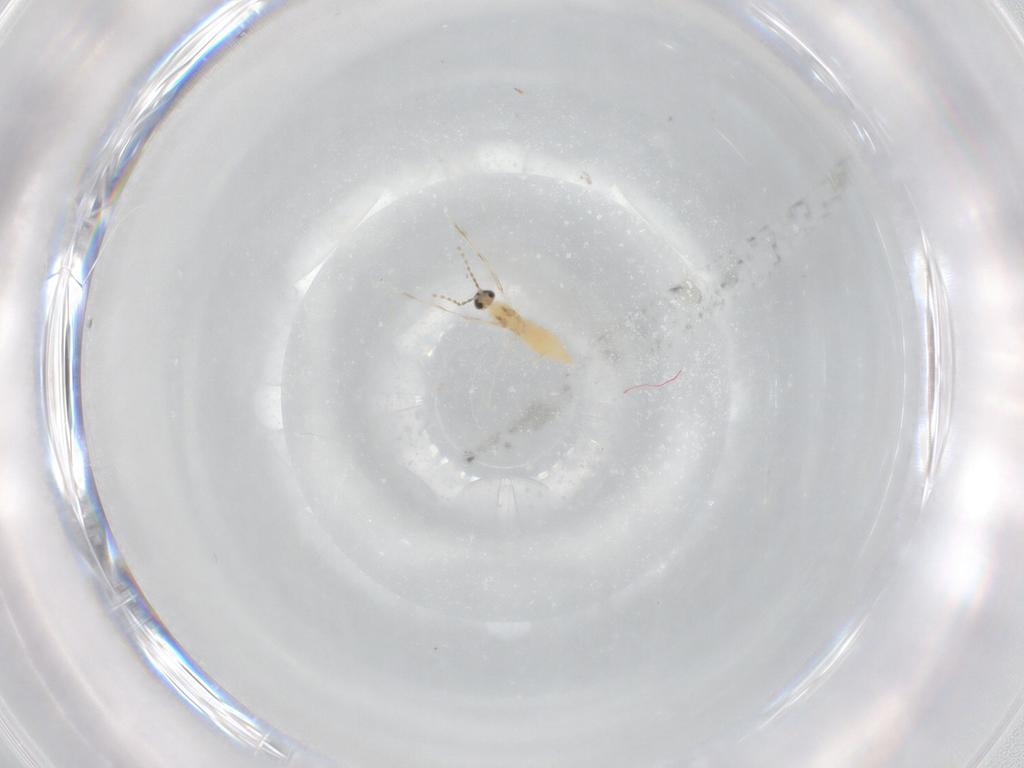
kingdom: Animalia
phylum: Arthropoda
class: Insecta
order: Diptera
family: Cecidomyiidae
